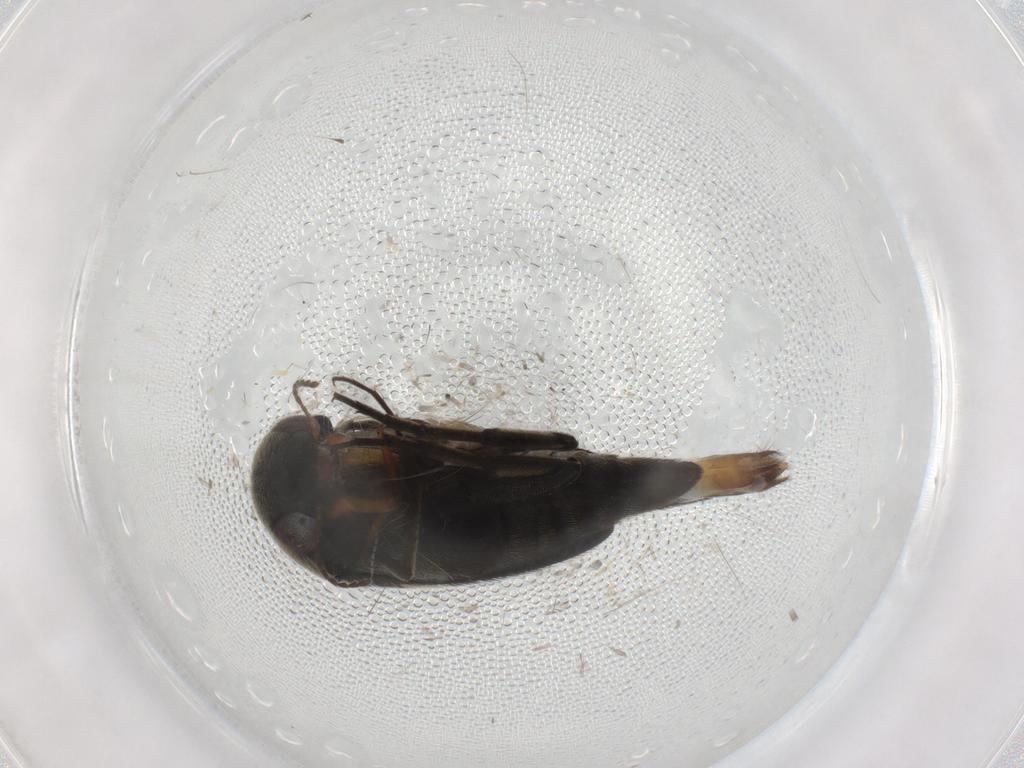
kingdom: Animalia
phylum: Arthropoda
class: Insecta
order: Coleoptera
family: Mordellidae
